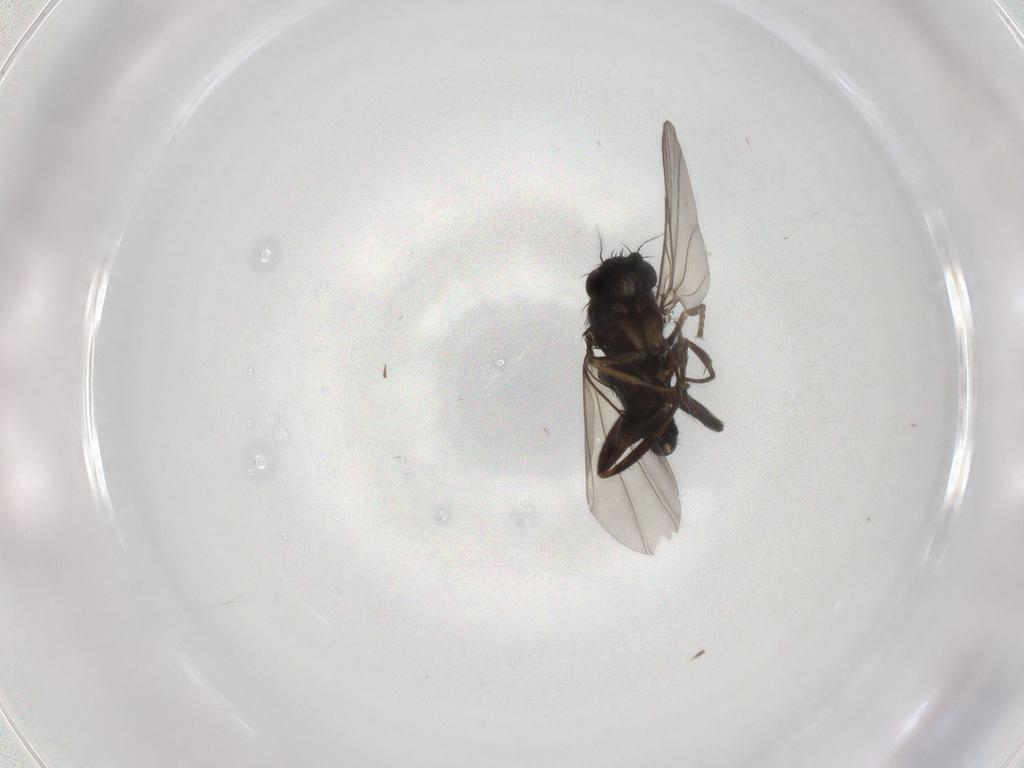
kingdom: Animalia
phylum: Arthropoda
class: Insecta
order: Diptera
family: Phoridae
